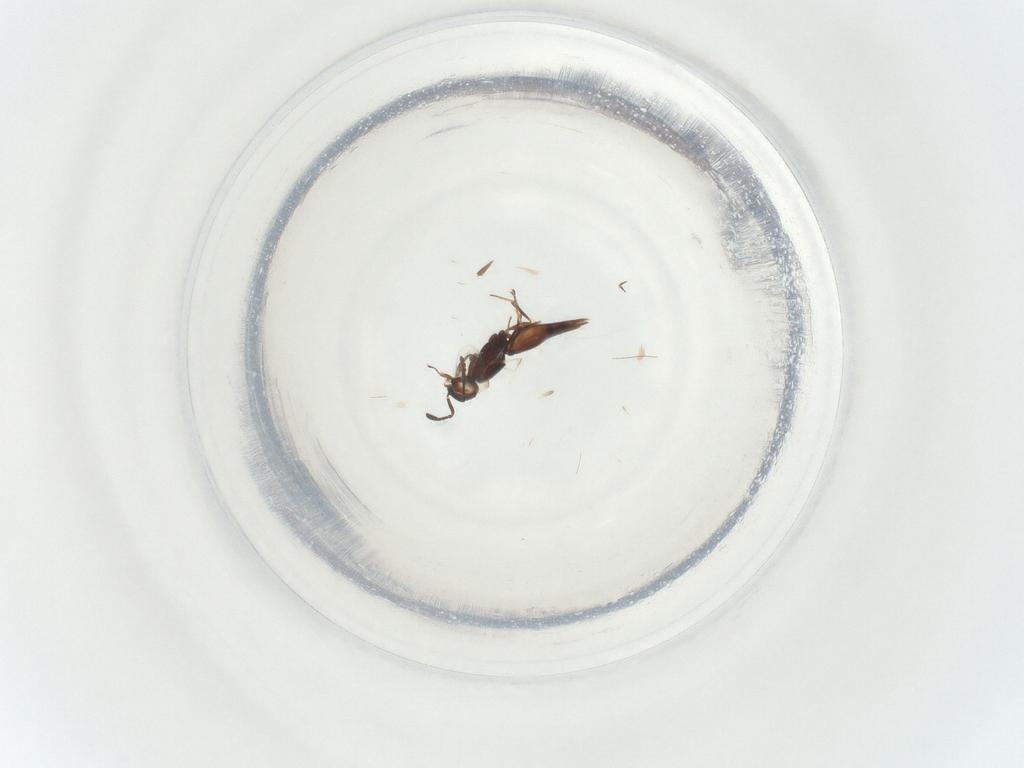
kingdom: Animalia
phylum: Arthropoda
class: Insecta
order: Hymenoptera
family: Scelionidae
